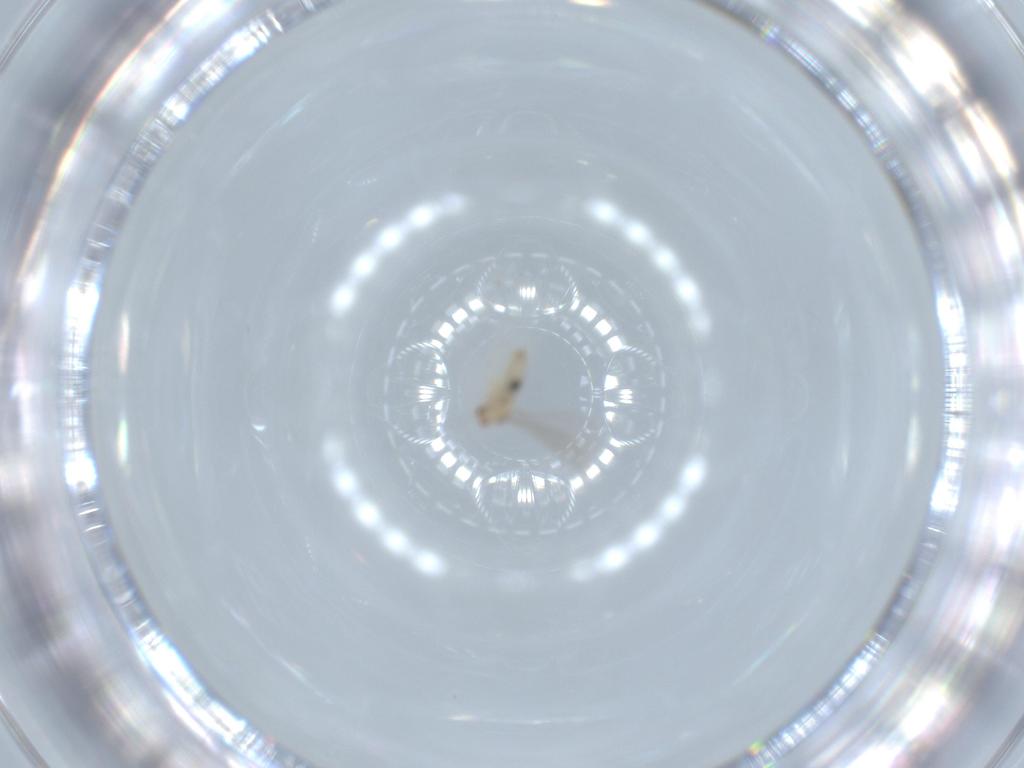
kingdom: Animalia
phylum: Arthropoda
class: Insecta
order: Diptera
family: Cecidomyiidae
